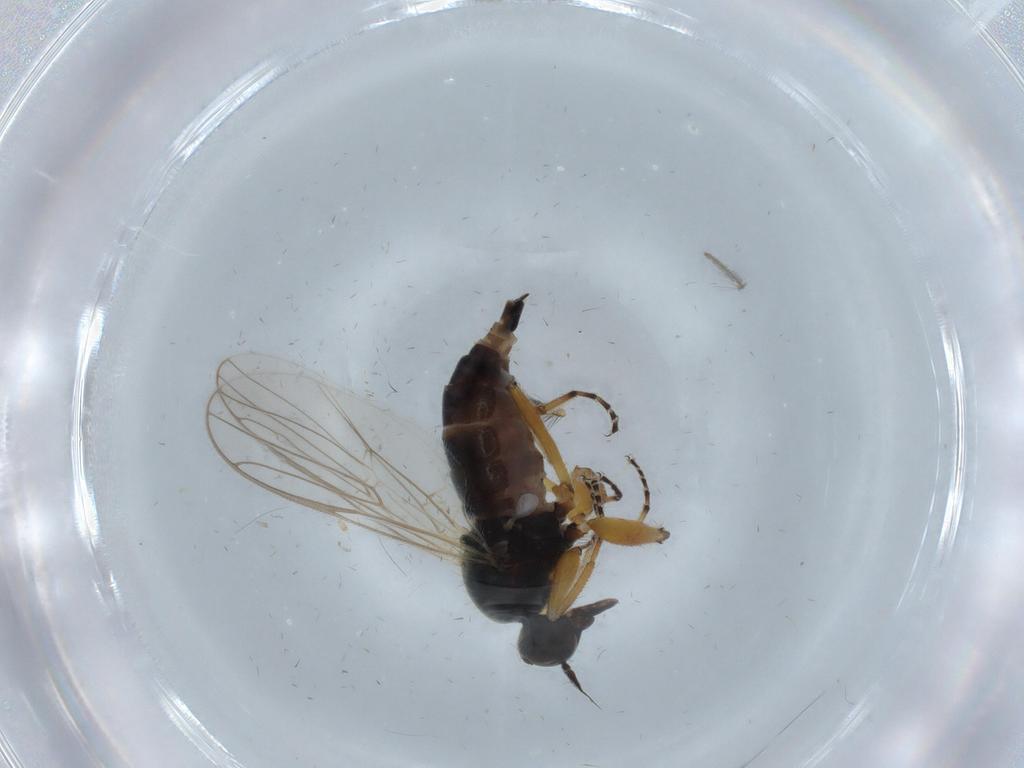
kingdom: Animalia
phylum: Arthropoda
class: Insecta
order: Diptera
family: Hybotidae
